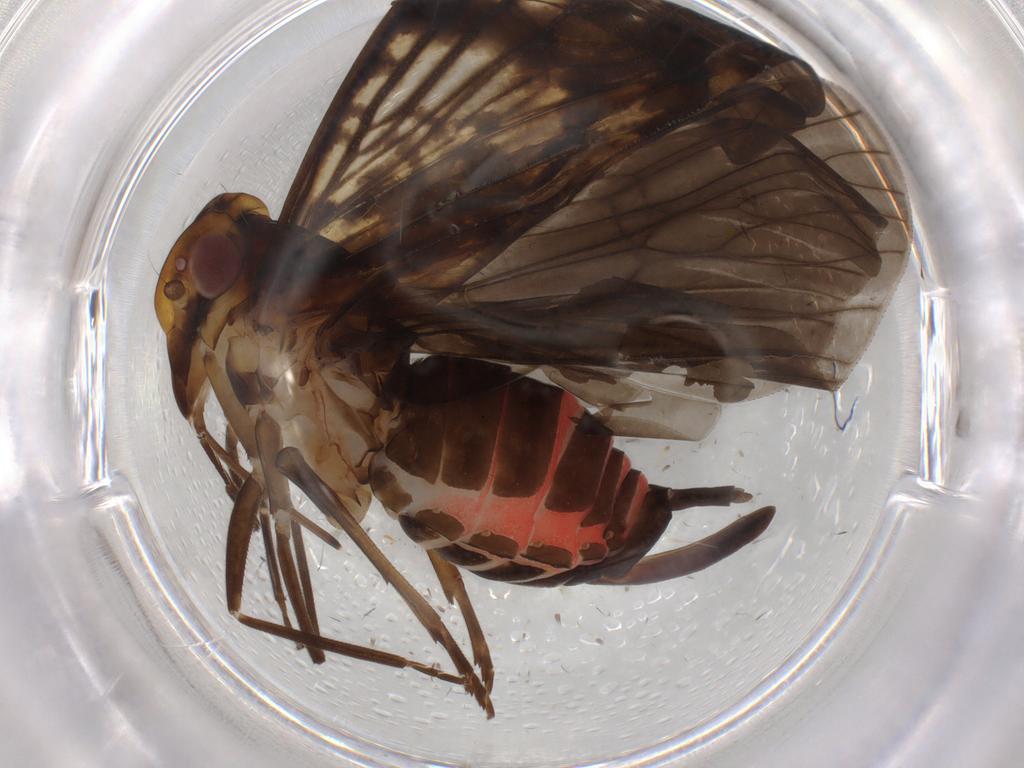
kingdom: Animalia
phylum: Arthropoda
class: Insecta
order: Hemiptera
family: Cixiidae
